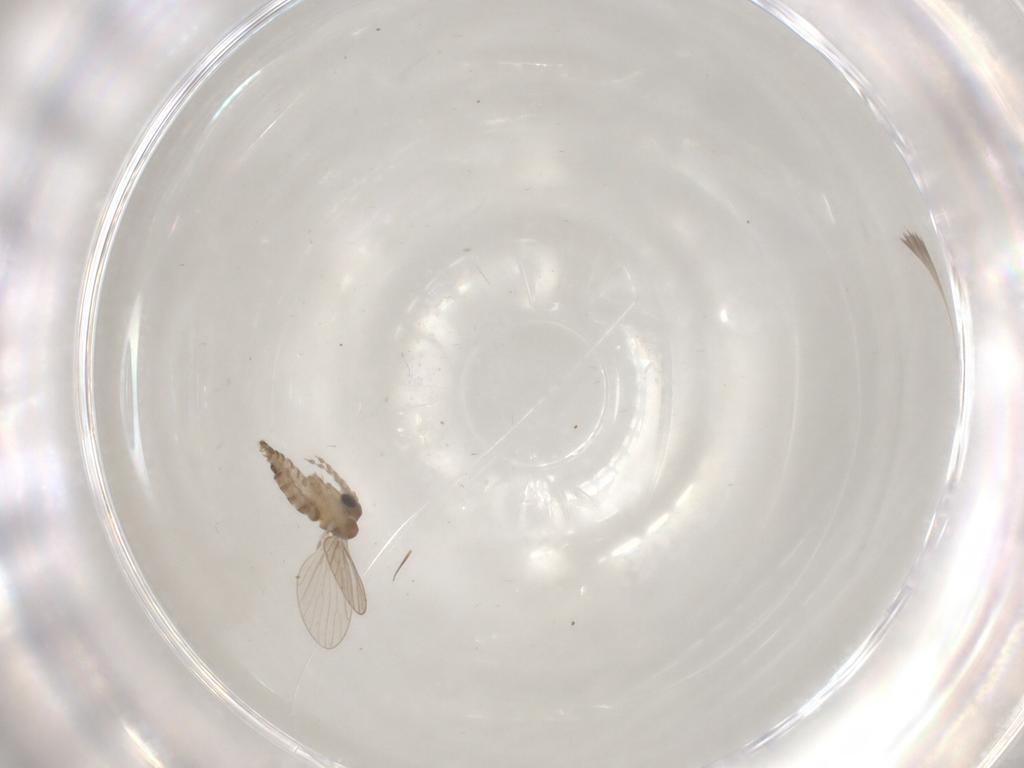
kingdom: Animalia
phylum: Arthropoda
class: Insecta
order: Diptera
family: Psychodidae
